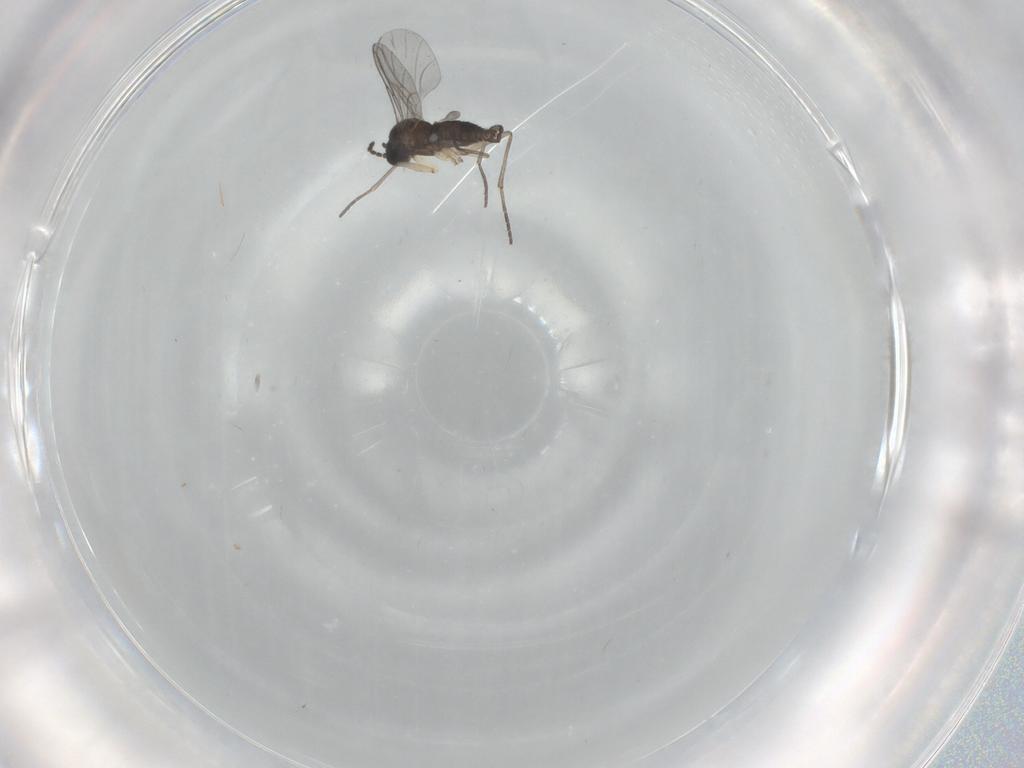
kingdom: Animalia
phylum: Arthropoda
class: Insecta
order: Diptera
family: Sciaridae
